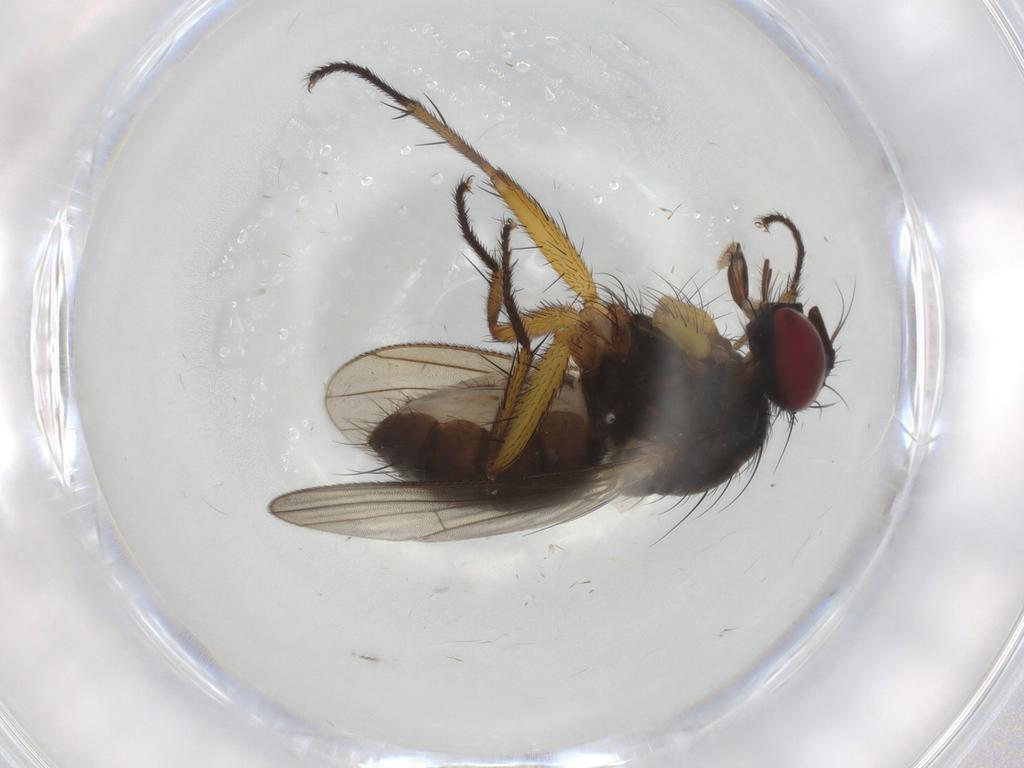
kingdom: Animalia
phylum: Arthropoda
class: Insecta
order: Diptera
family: Muscidae
